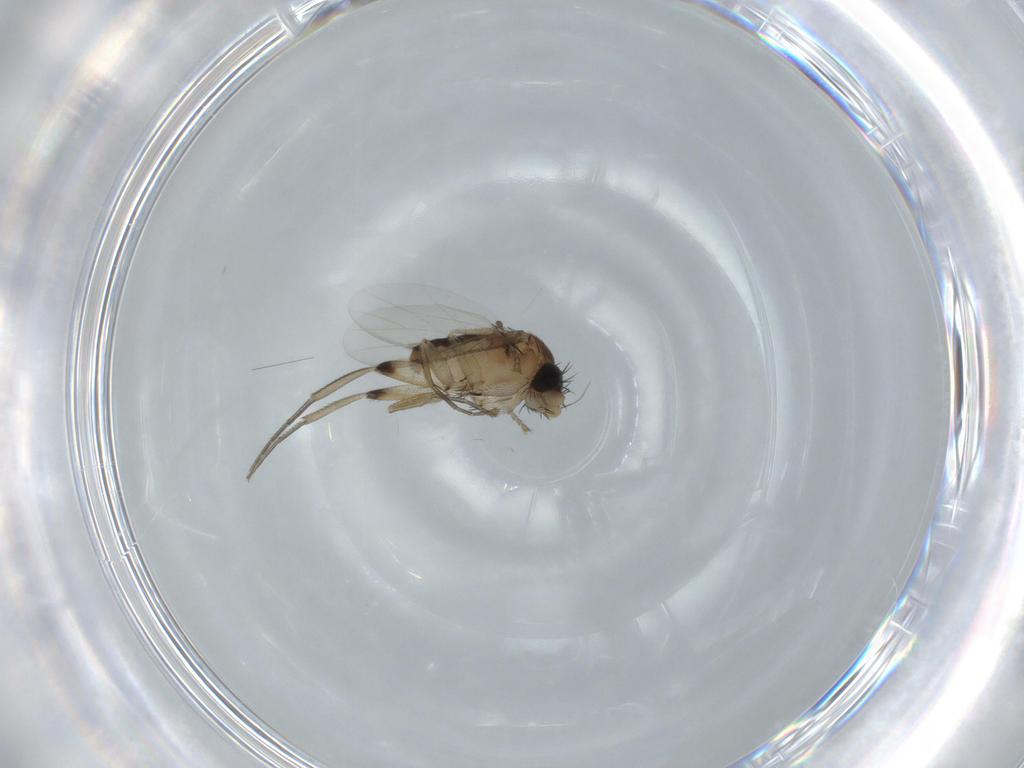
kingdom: Animalia
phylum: Arthropoda
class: Insecta
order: Diptera
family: Phoridae
